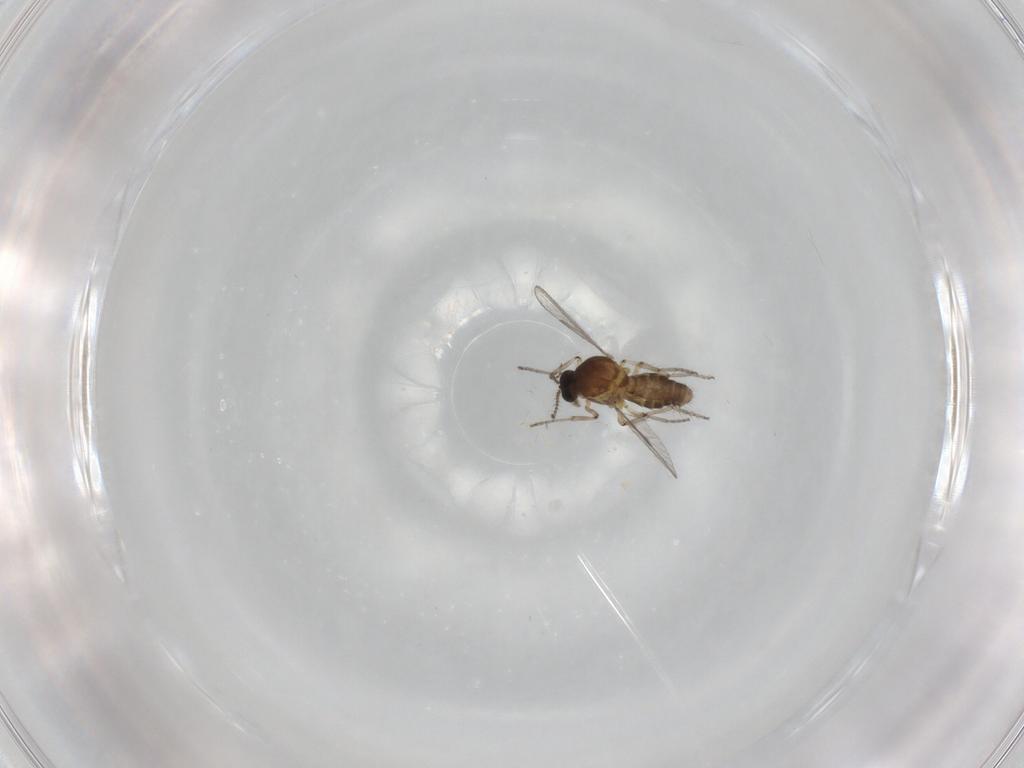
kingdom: Animalia
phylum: Arthropoda
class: Insecta
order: Diptera
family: Ceratopogonidae
